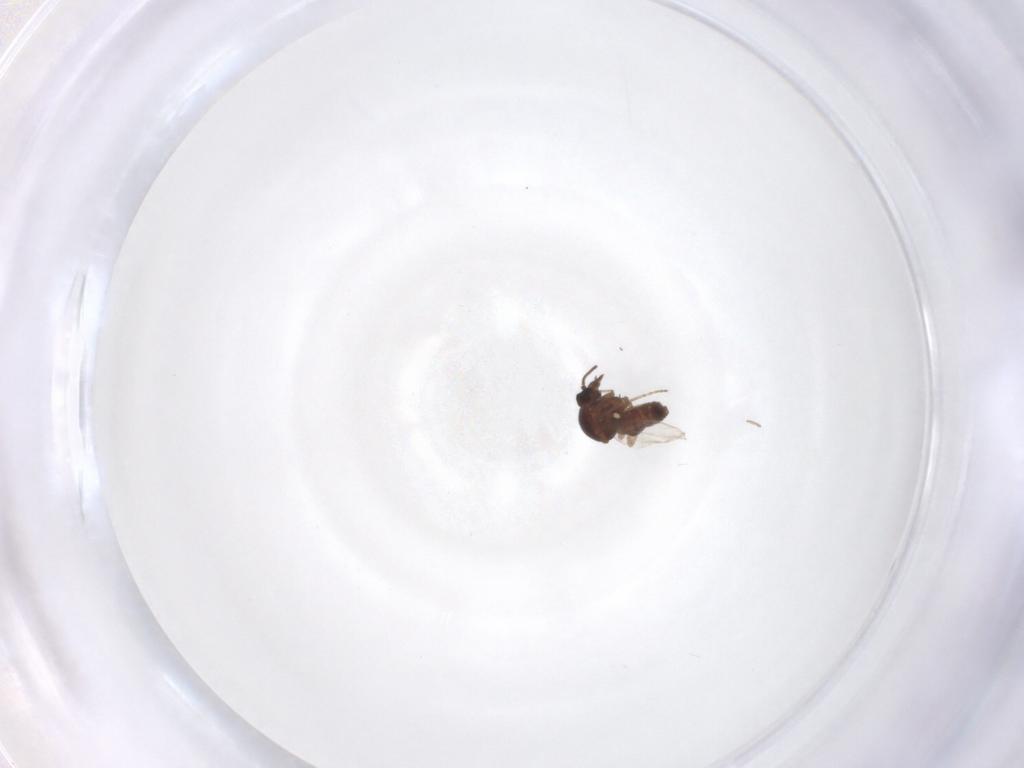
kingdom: Animalia
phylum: Arthropoda
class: Insecta
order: Diptera
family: Ceratopogonidae
